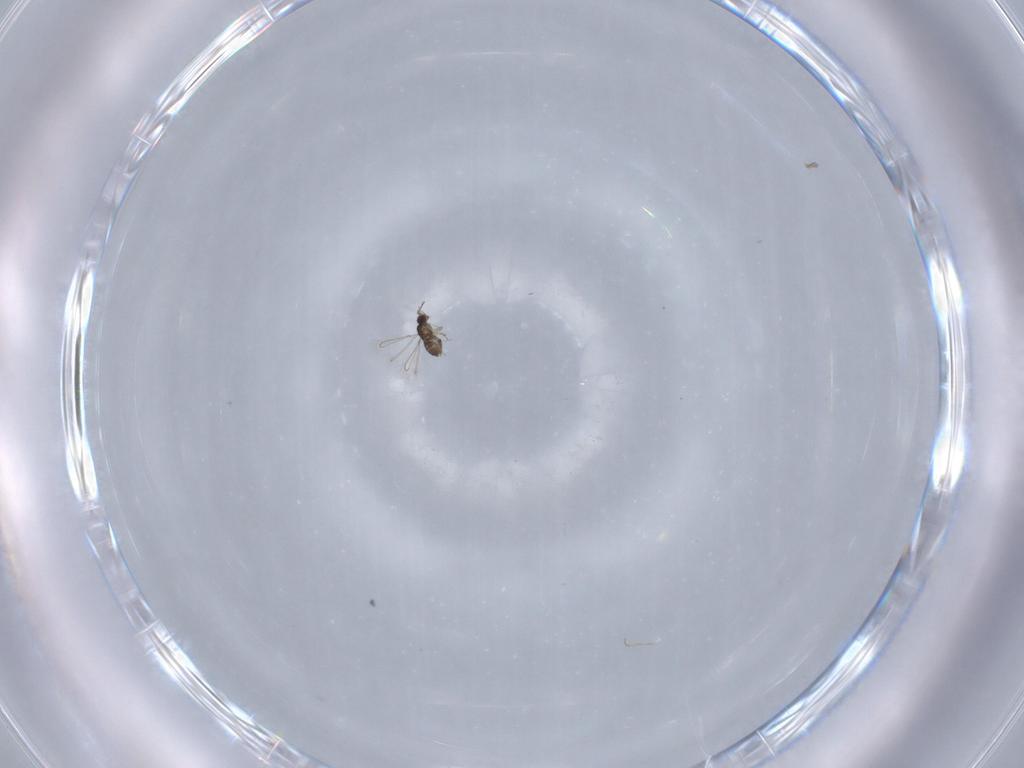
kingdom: Animalia
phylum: Arthropoda
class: Insecta
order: Hymenoptera
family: Mymaridae
